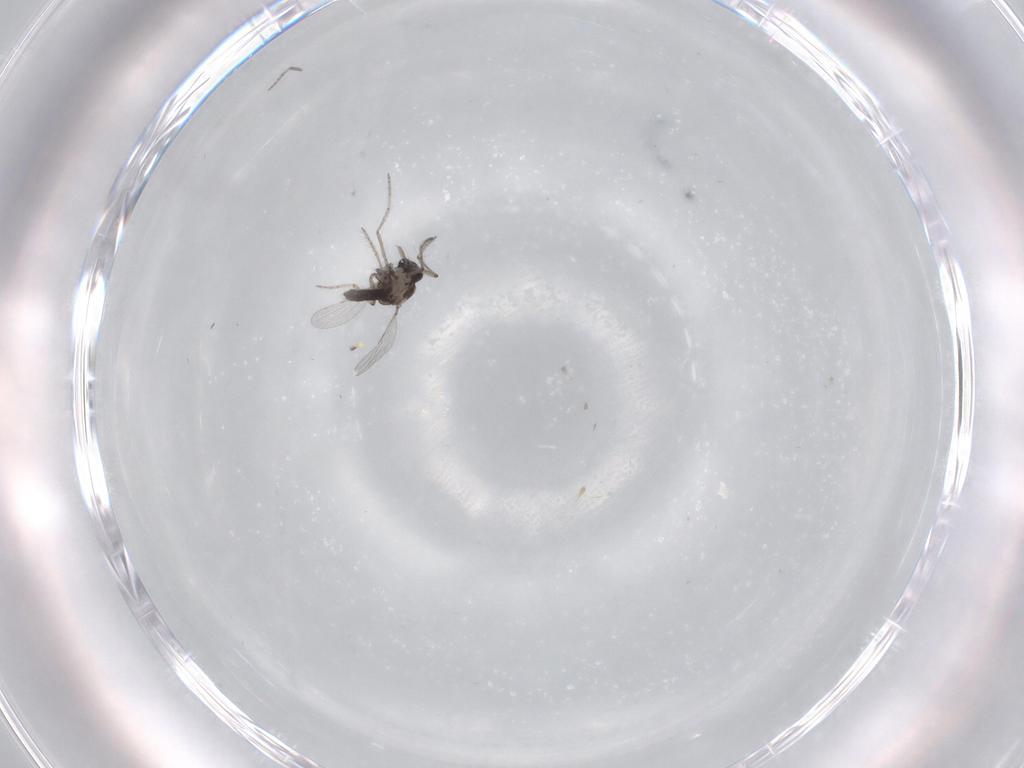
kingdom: Animalia
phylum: Arthropoda
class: Insecta
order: Diptera
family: Ceratopogonidae
